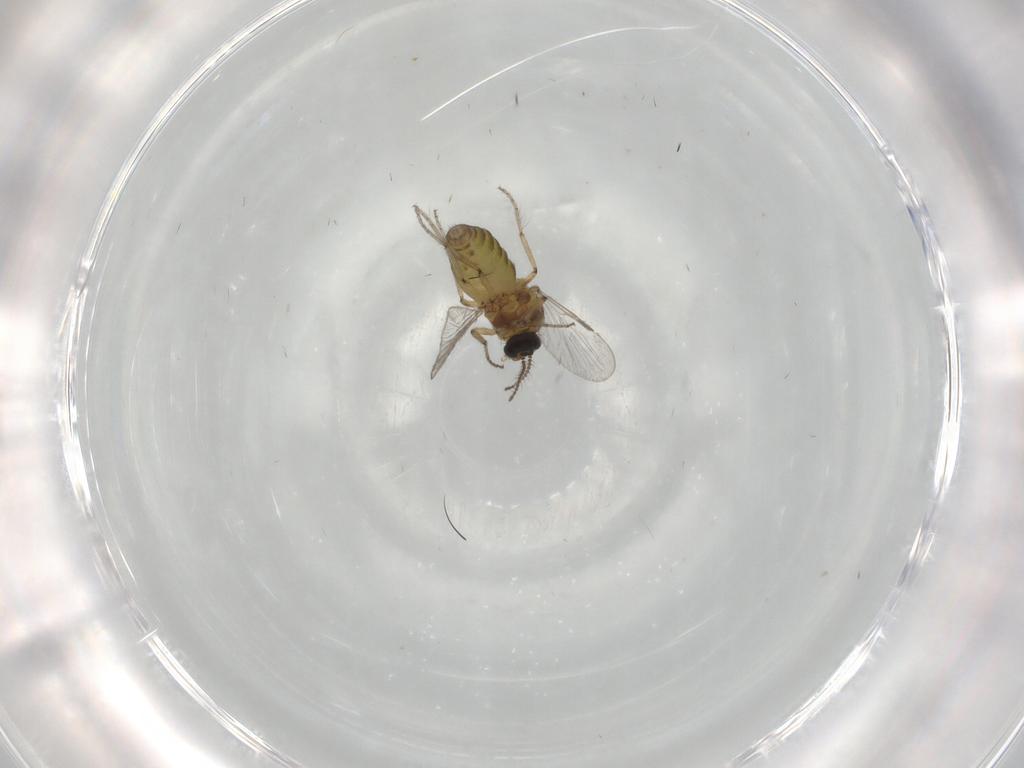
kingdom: Animalia
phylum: Arthropoda
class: Insecta
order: Diptera
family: Ceratopogonidae
